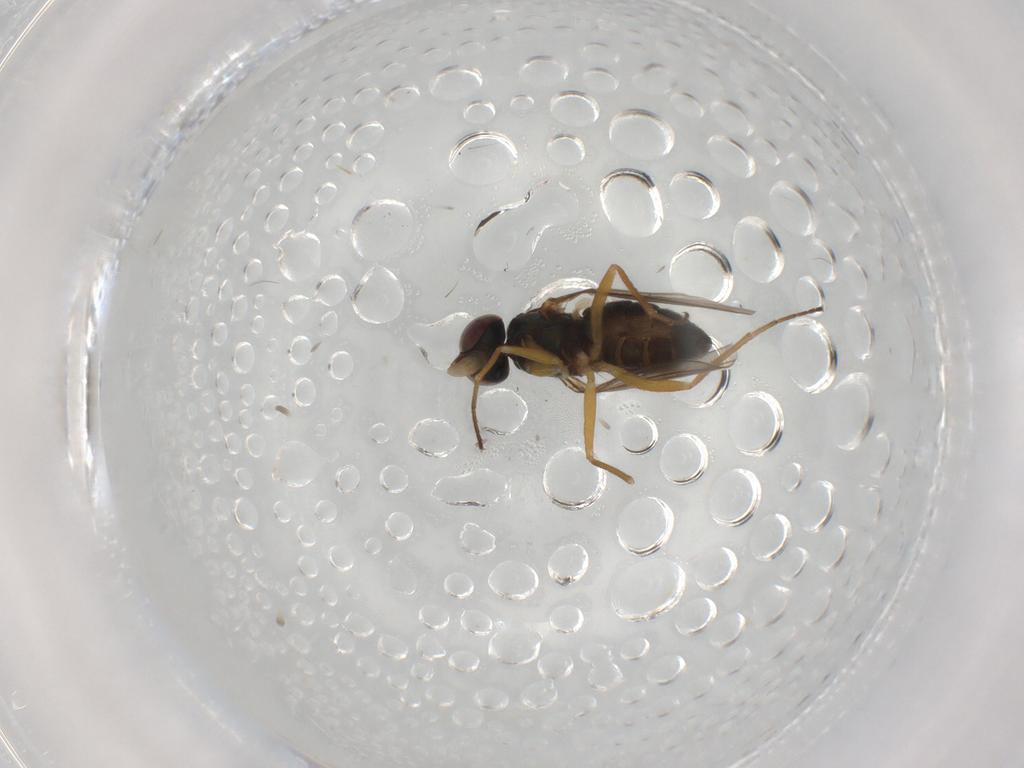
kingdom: Animalia
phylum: Arthropoda
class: Insecta
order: Diptera
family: Dolichopodidae
